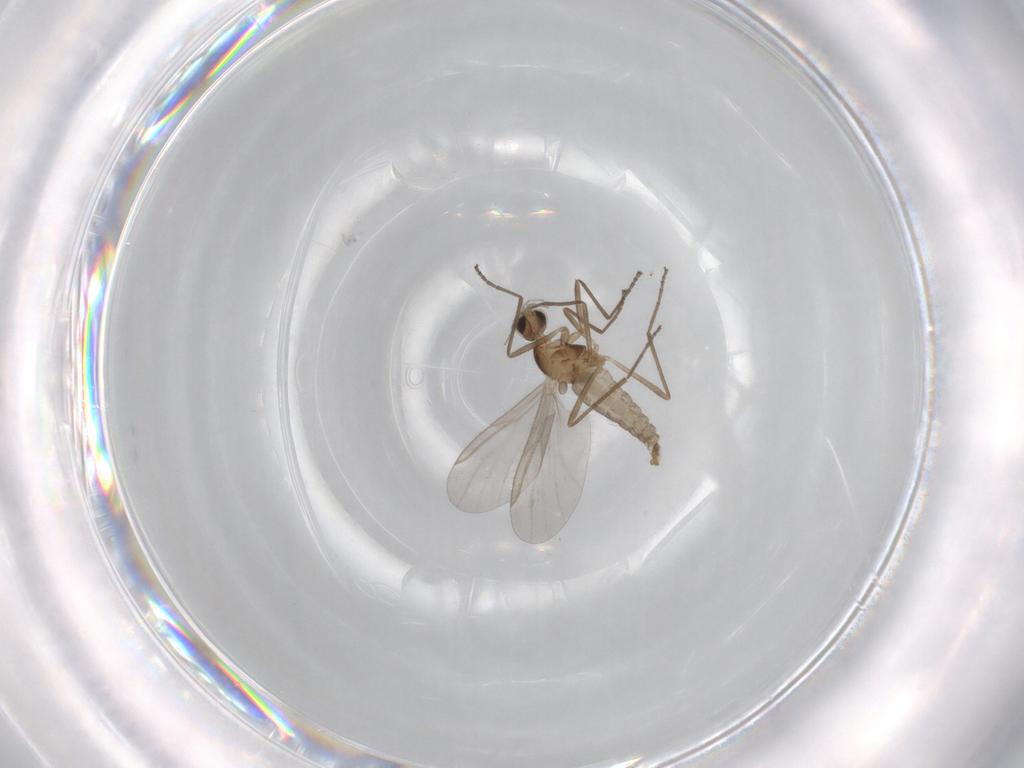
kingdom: Animalia
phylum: Arthropoda
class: Insecta
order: Diptera
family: Cecidomyiidae
